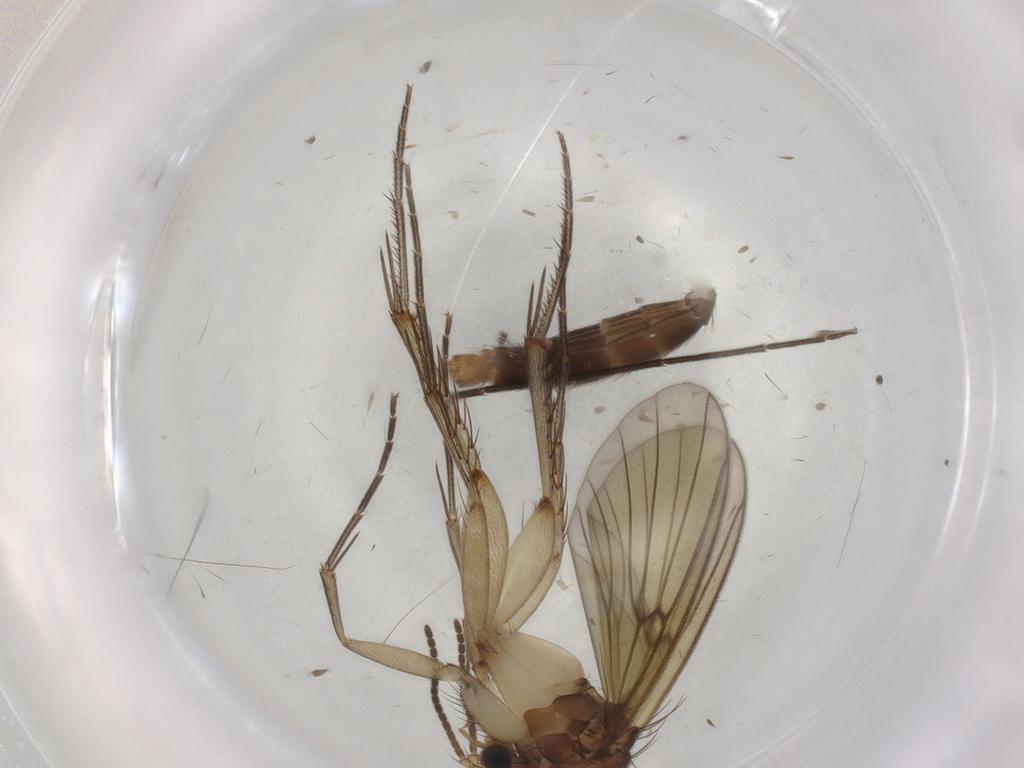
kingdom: Animalia
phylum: Arthropoda
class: Insecta
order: Diptera
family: Mycetophilidae
